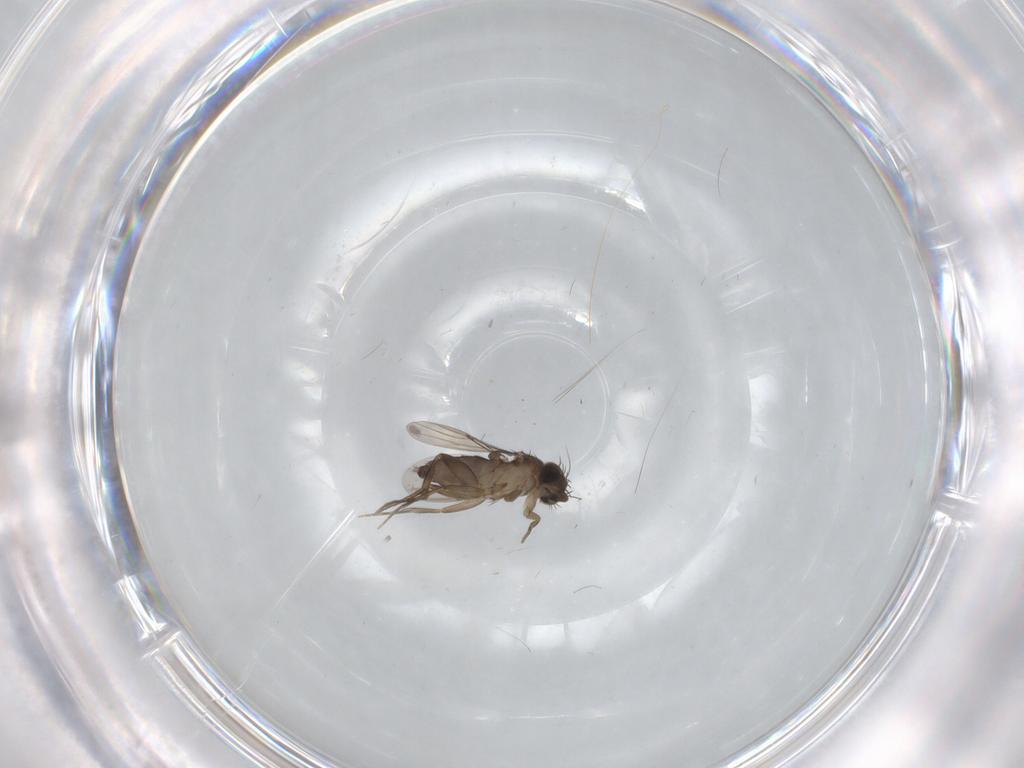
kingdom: Animalia
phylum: Arthropoda
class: Insecta
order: Diptera
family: Phoridae
